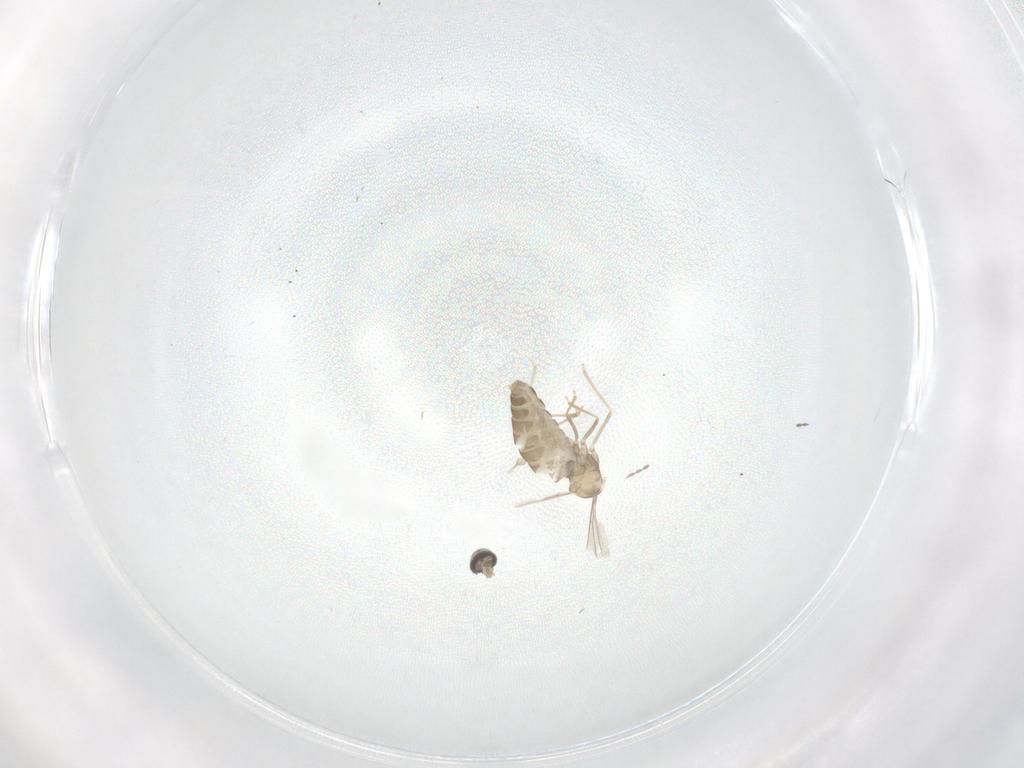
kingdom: Animalia
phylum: Arthropoda
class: Insecta
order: Diptera
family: Cecidomyiidae
